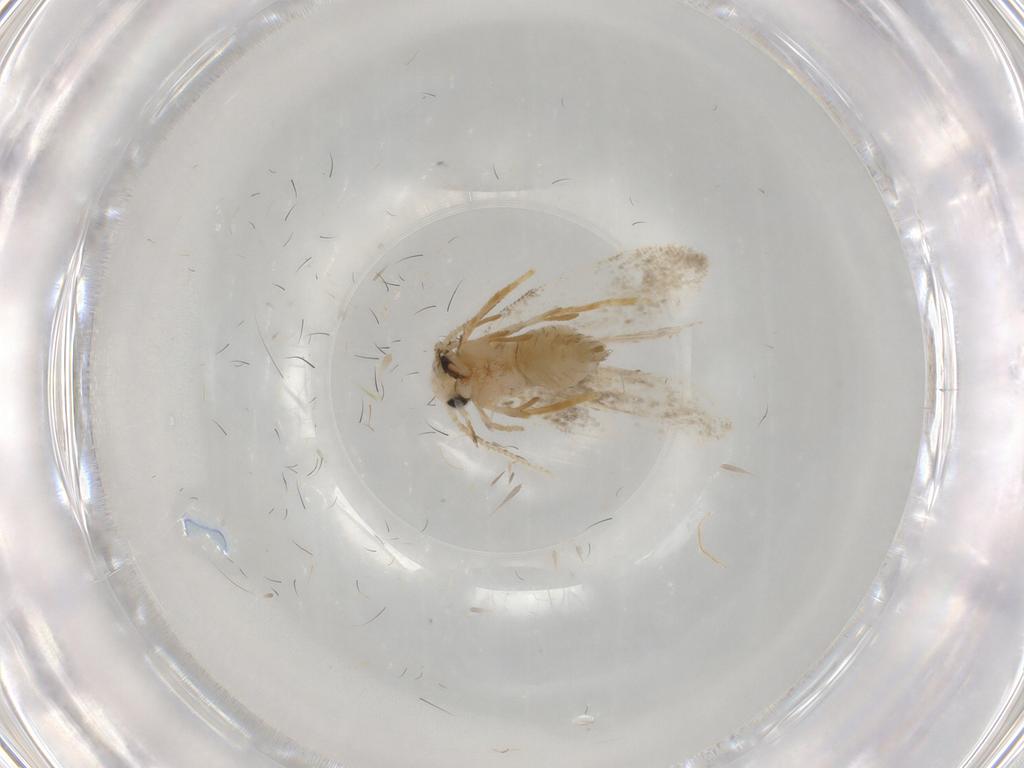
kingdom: Animalia
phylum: Arthropoda
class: Insecta
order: Lepidoptera
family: Psychidae
